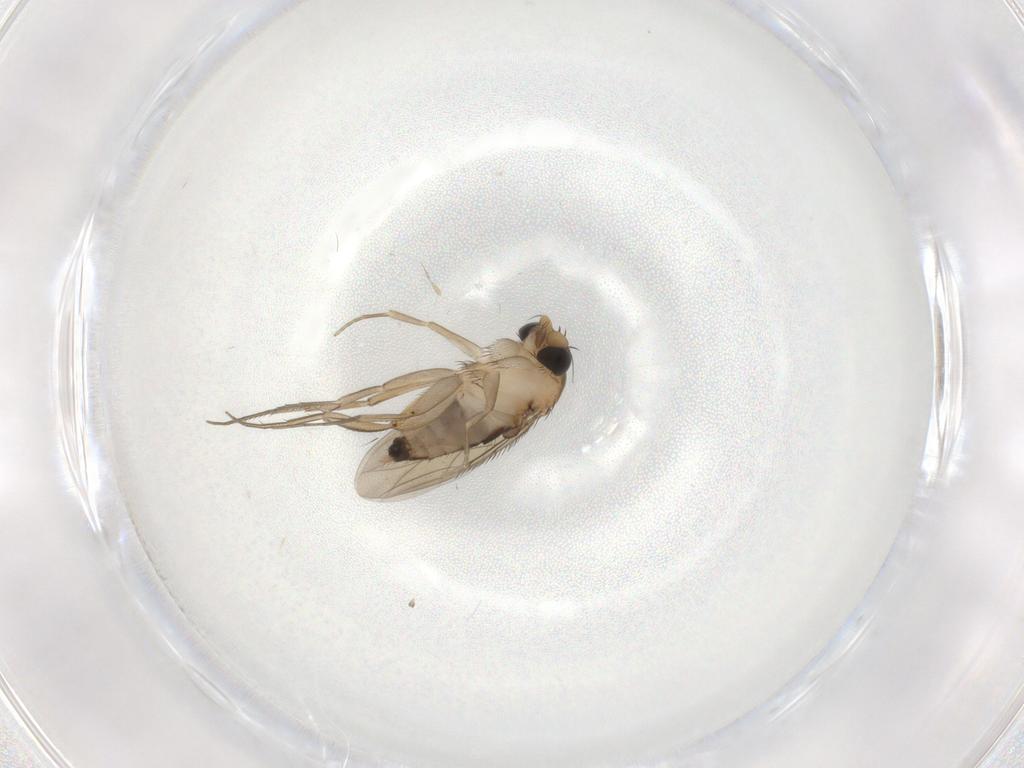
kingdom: Animalia
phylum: Arthropoda
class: Insecta
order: Diptera
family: Phoridae
